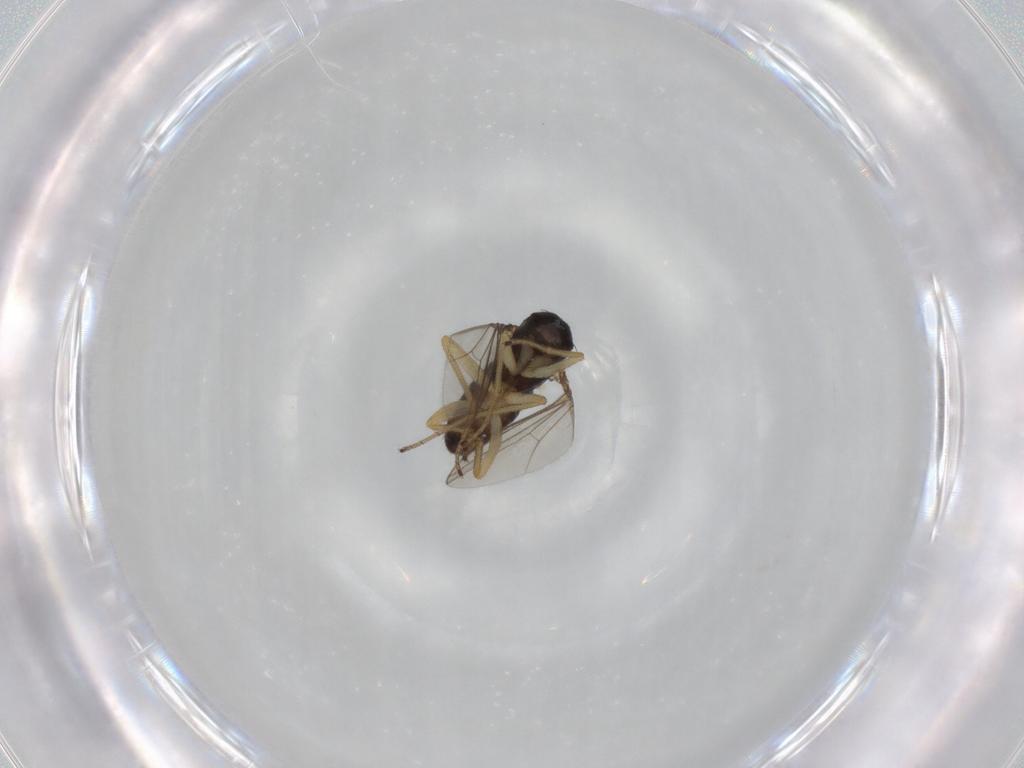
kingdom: Animalia
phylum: Arthropoda
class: Insecta
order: Diptera
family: Dolichopodidae
